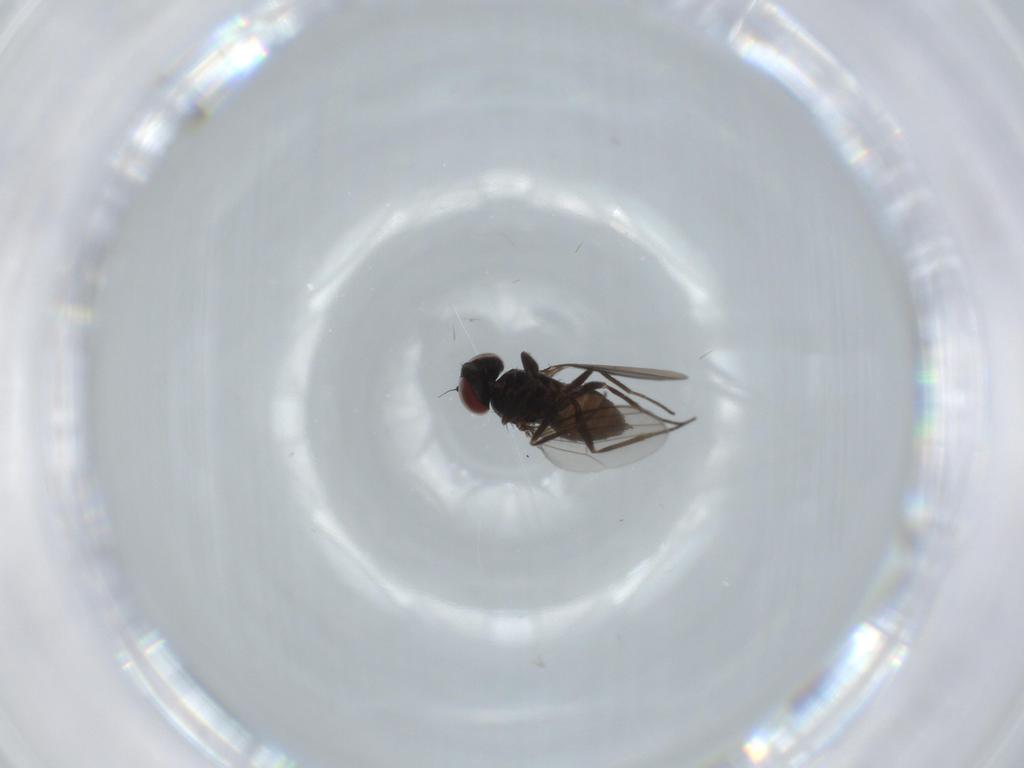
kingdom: Animalia
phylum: Arthropoda
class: Insecta
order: Diptera
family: Dolichopodidae
